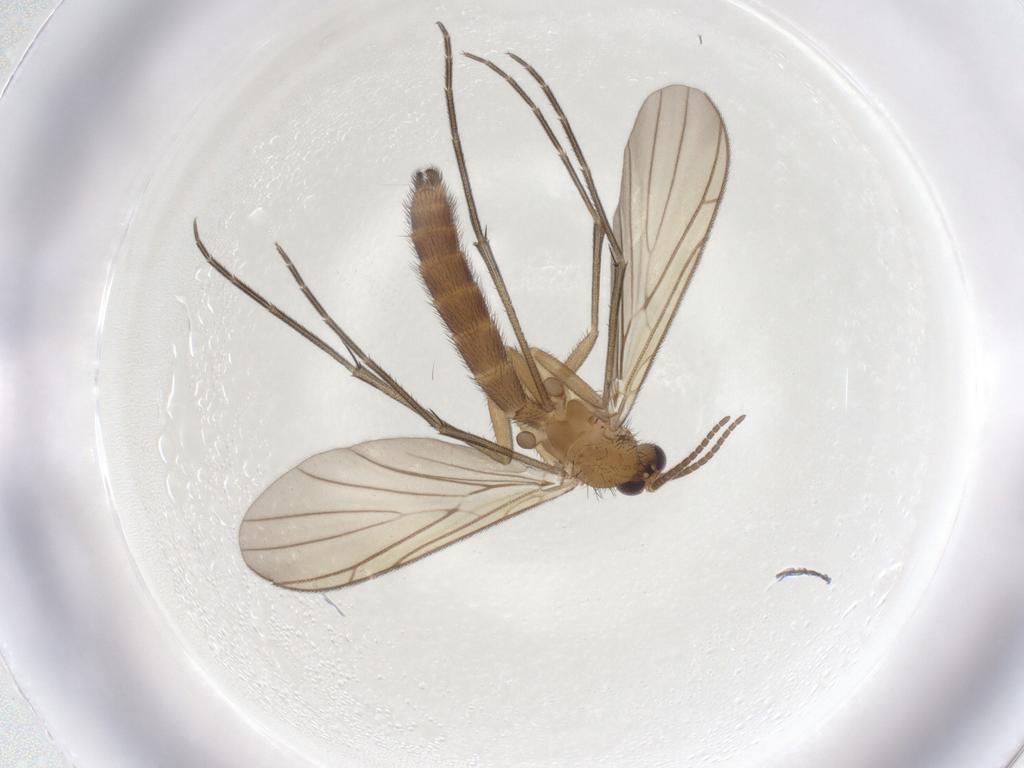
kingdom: Animalia
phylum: Arthropoda
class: Insecta
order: Diptera
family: Keroplatidae
